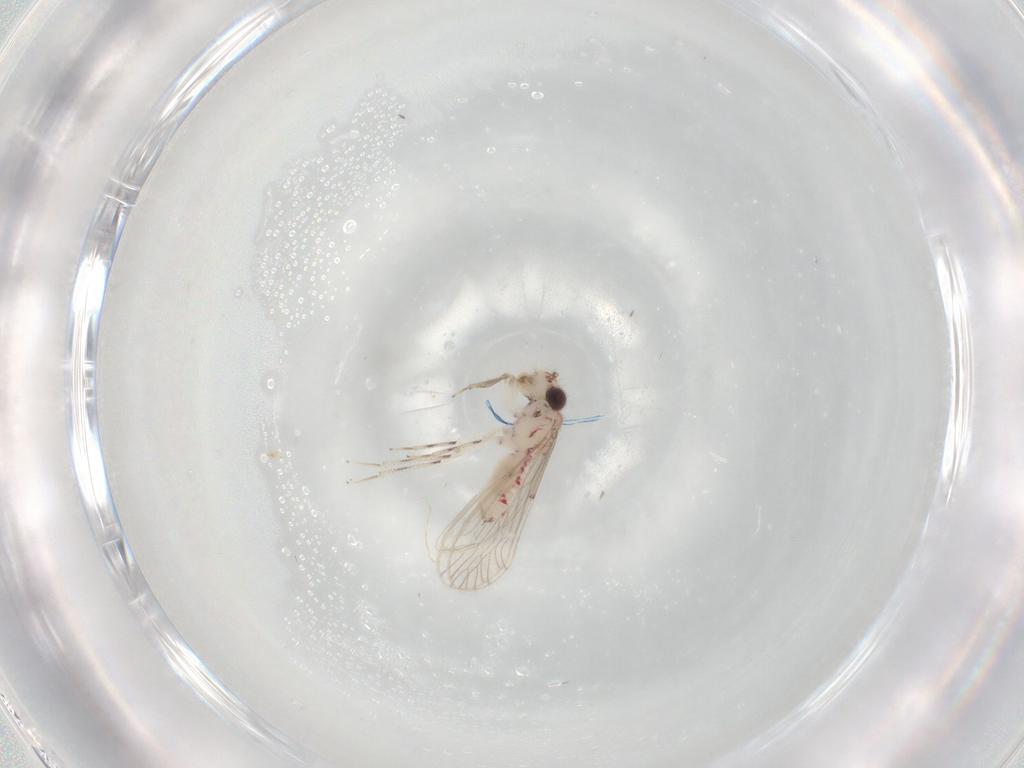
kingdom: Animalia
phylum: Arthropoda
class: Insecta
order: Psocodea
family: Caeciliusidae
